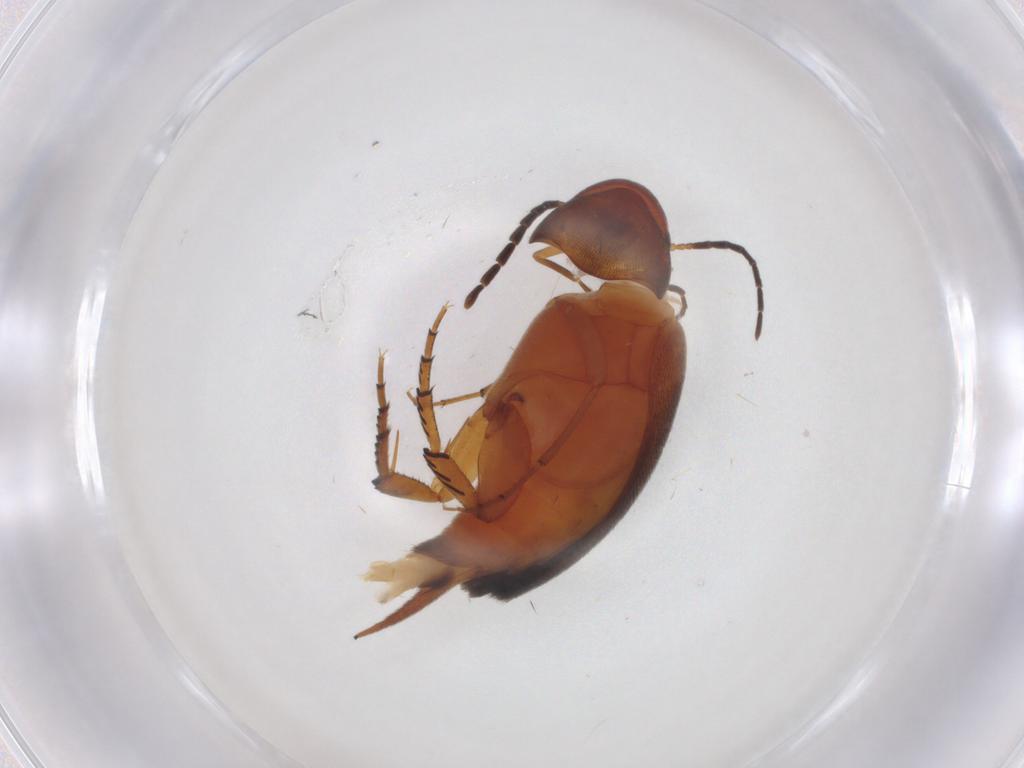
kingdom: Animalia
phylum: Arthropoda
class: Insecta
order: Coleoptera
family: Mordellidae
